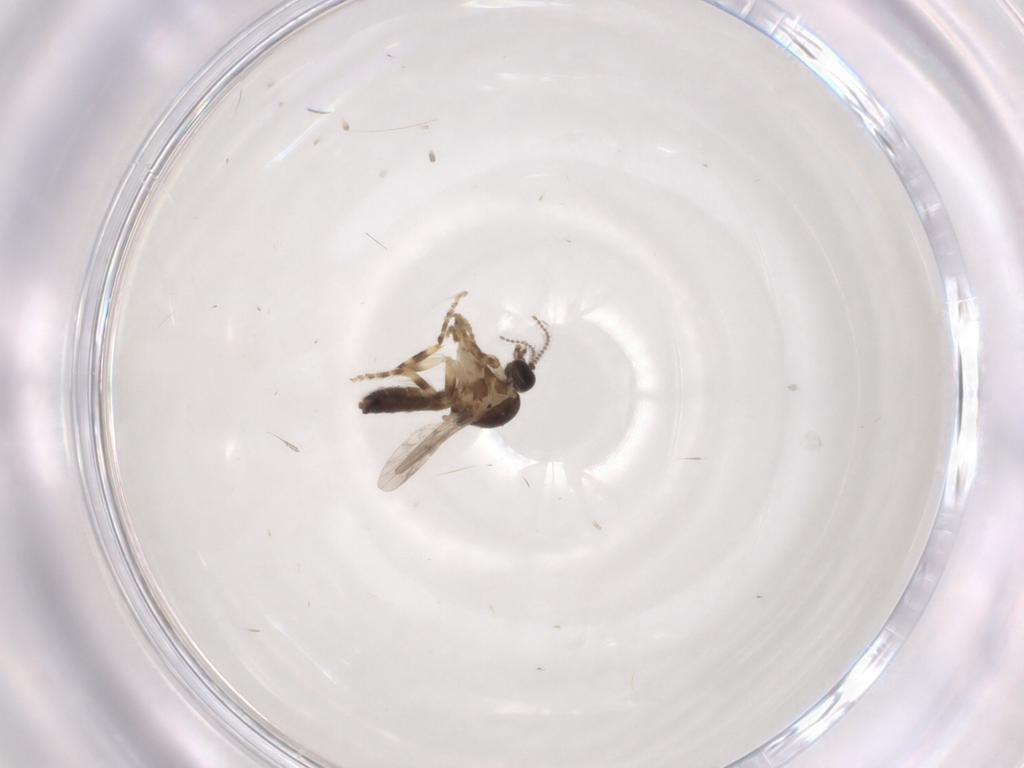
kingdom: Animalia
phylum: Arthropoda
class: Insecta
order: Diptera
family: Ceratopogonidae
